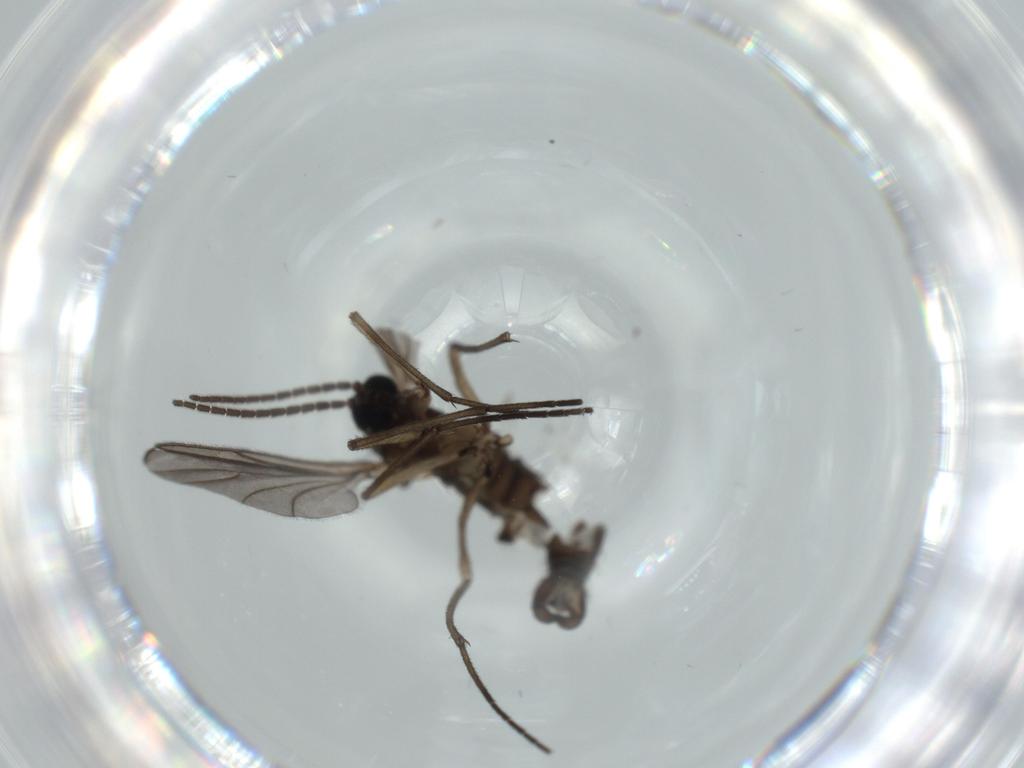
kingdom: Animalia
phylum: Arthropoda
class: Insecta
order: Diptera
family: Sciaridae
